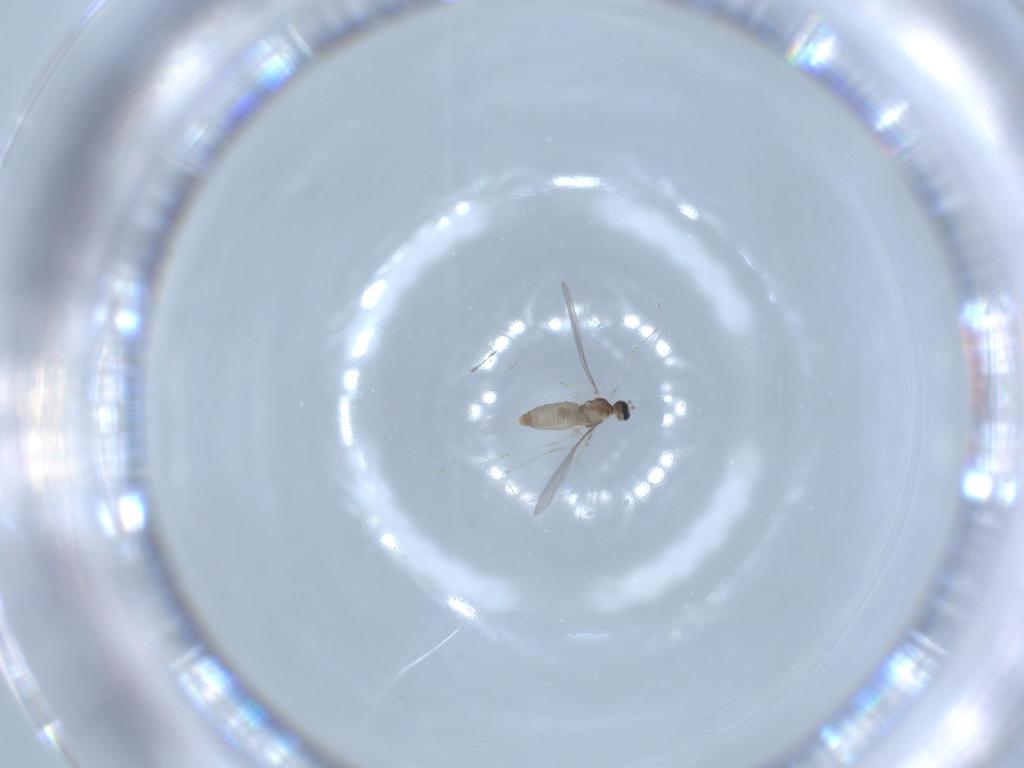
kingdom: Animalia
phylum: Arthropoda
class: Insecta
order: Diptera
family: Cecidomyiidae
